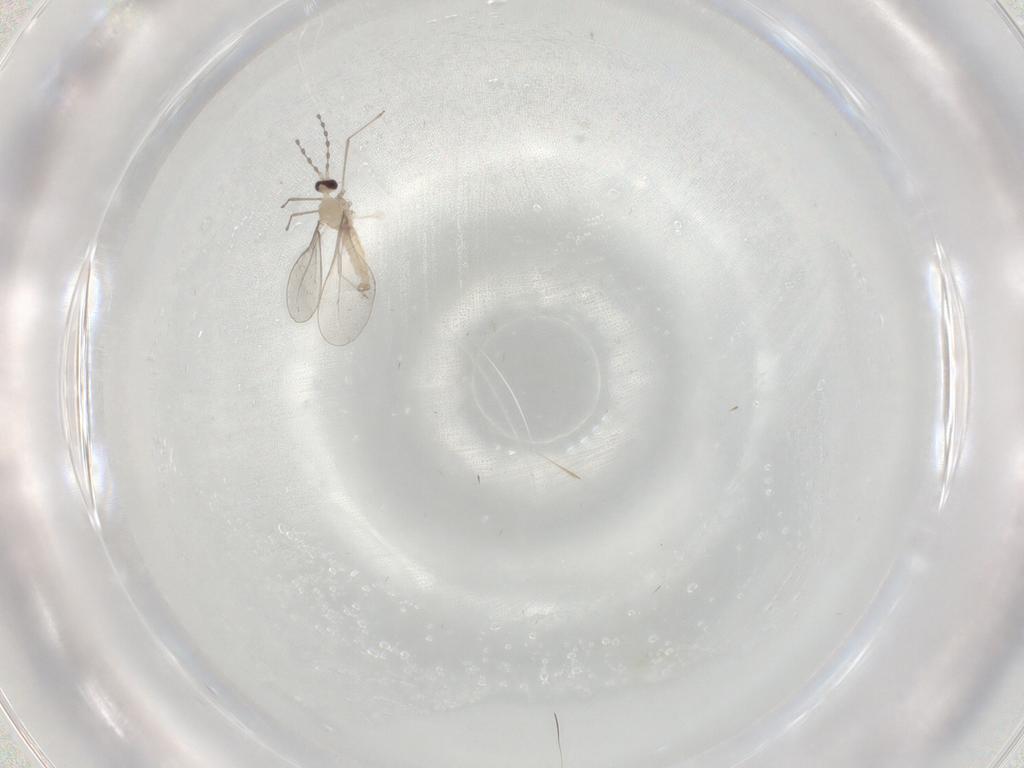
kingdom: Animalia
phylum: Arthropoda
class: Insecta
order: Diptera
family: Cecidomyiidae
